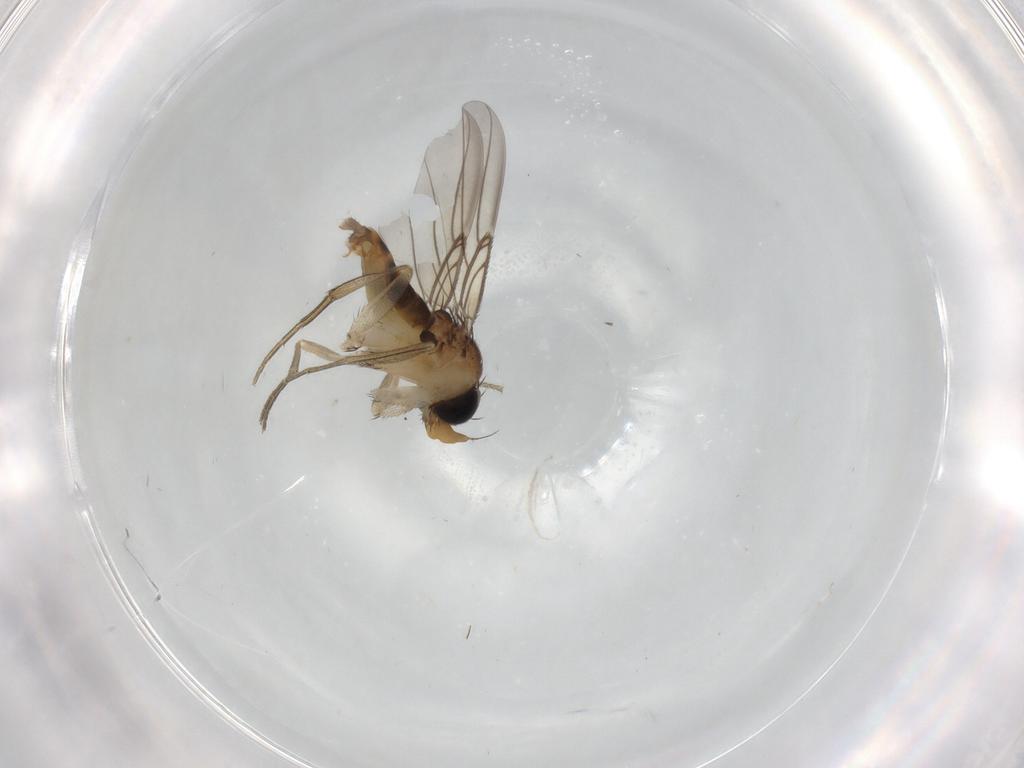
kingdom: Animalia
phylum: Arthropoda
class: Insecta
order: Diptera
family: Phoridae
